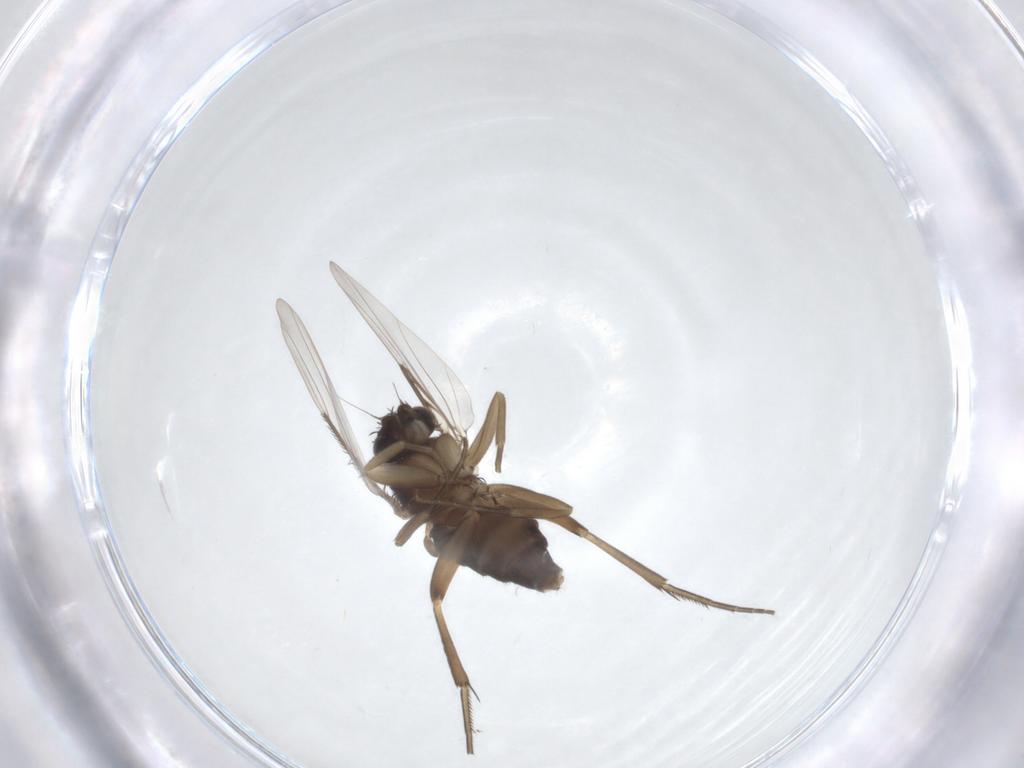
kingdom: Animalia
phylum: Arthropoda
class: Insecta
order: Diptera
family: Phoridae
